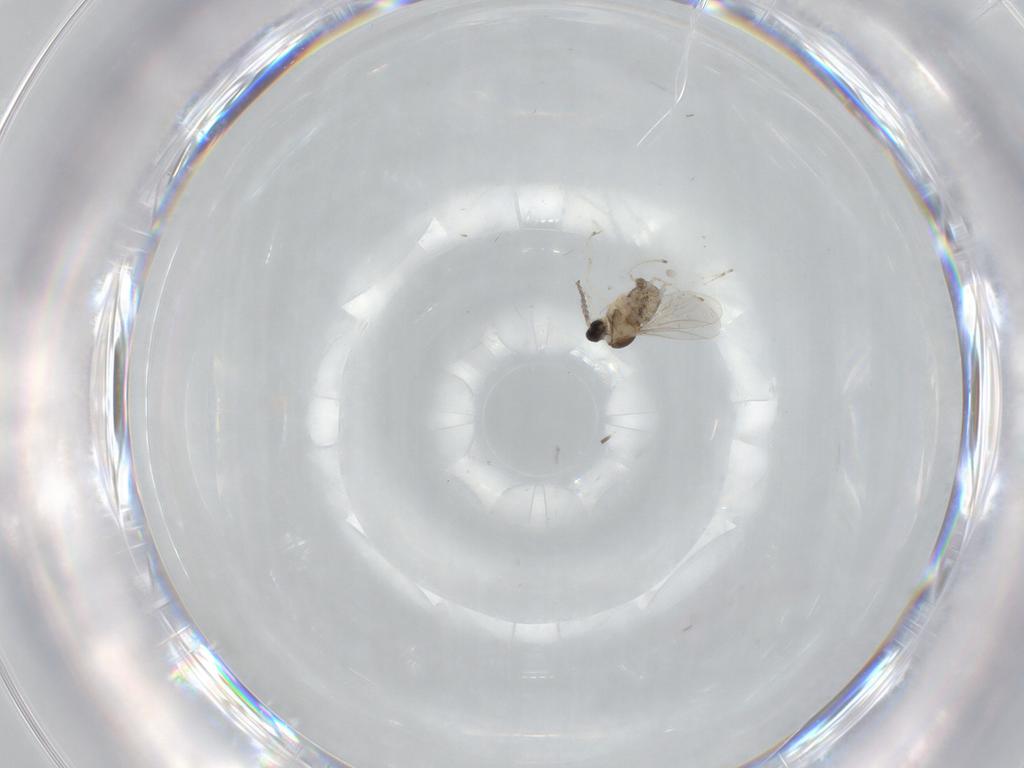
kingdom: Animalia
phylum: Arthropoda
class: Insecta
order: Diptera
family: Cecidomyiidae
